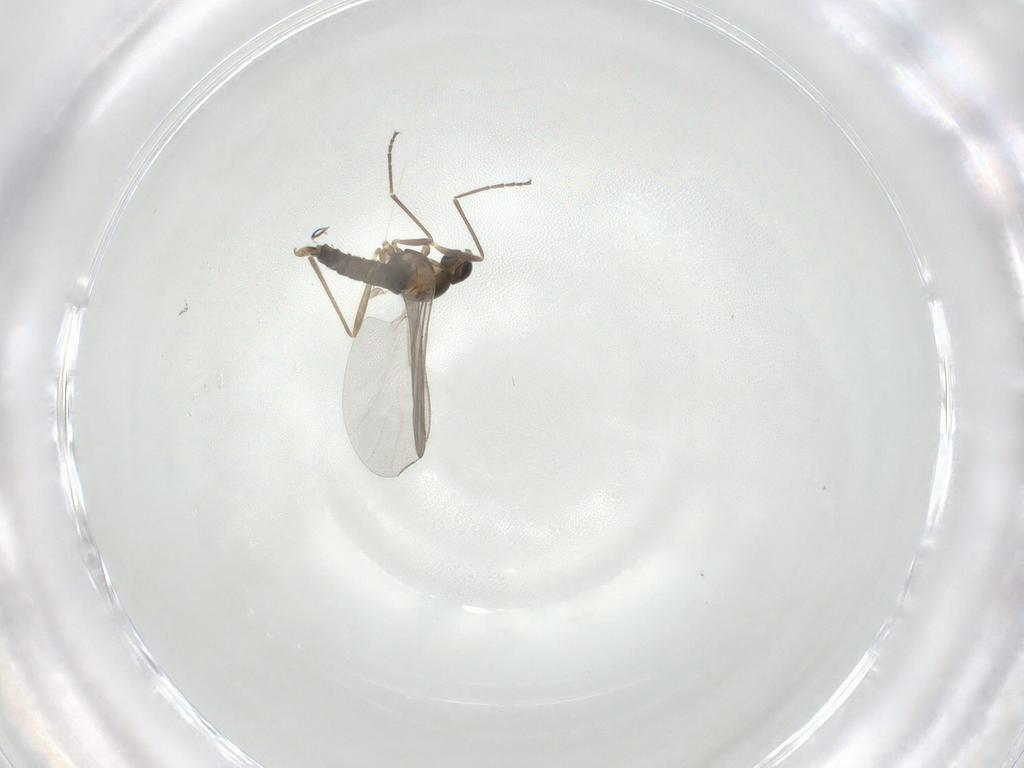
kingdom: Animalia
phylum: Arthropoda
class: Insecta
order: Diptera
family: Cecidomyiidae
